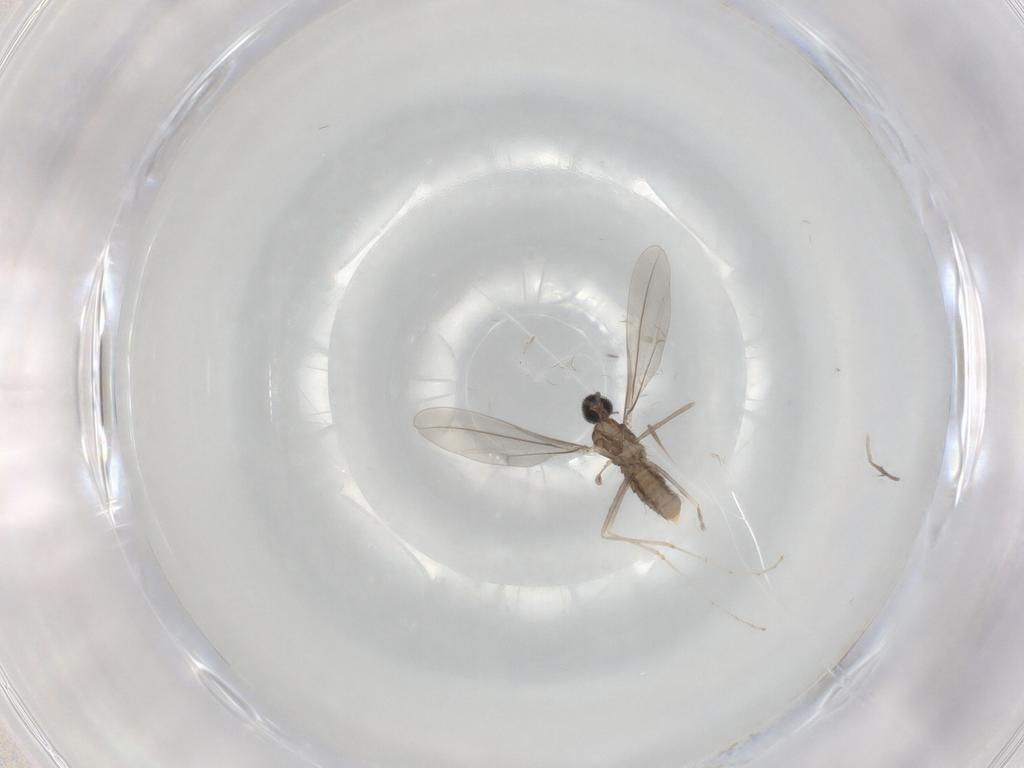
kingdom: Animalia
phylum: Arthropoda
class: Insecta
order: Diptera
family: Cecidomyiidae
